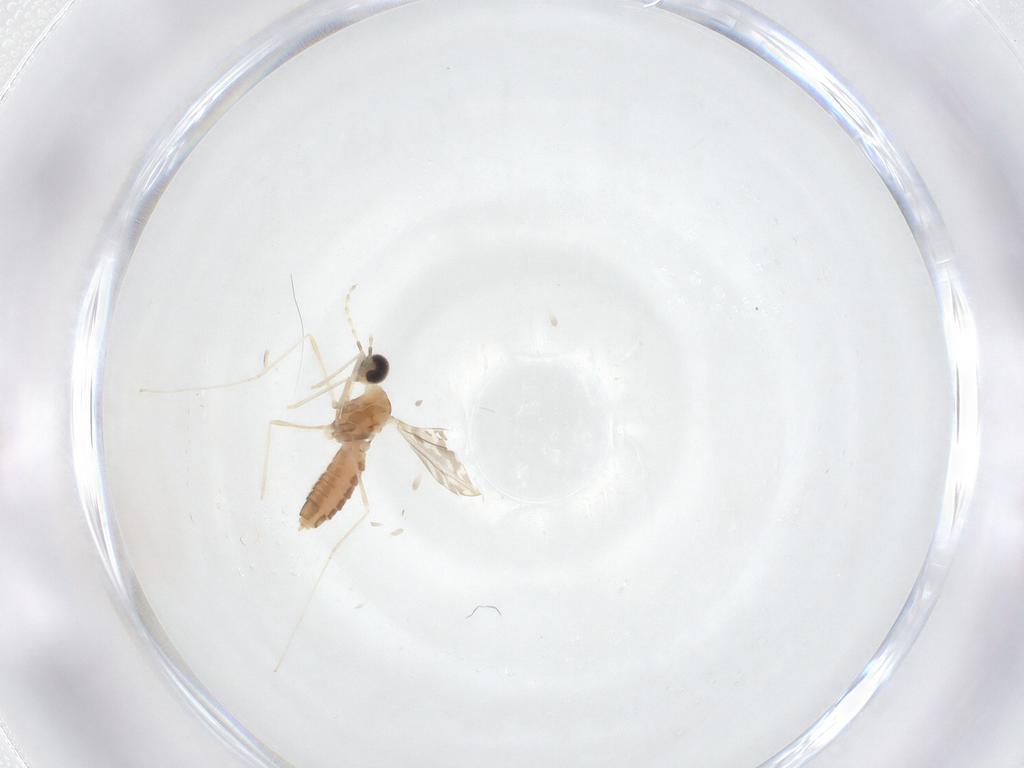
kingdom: Animalia
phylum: Arthropoda
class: Insecta
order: Diptera
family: Cecidomyiidae
